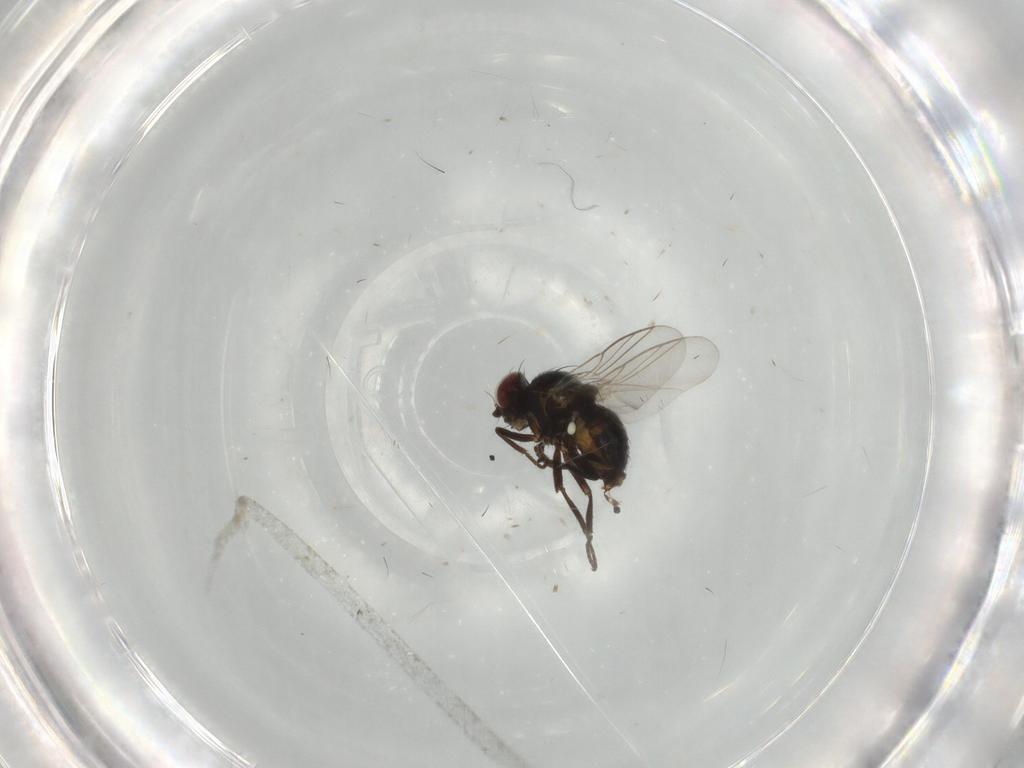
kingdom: Animalia
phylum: Arthropoda
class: Insecta
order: Diptera
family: Agromyzidae
